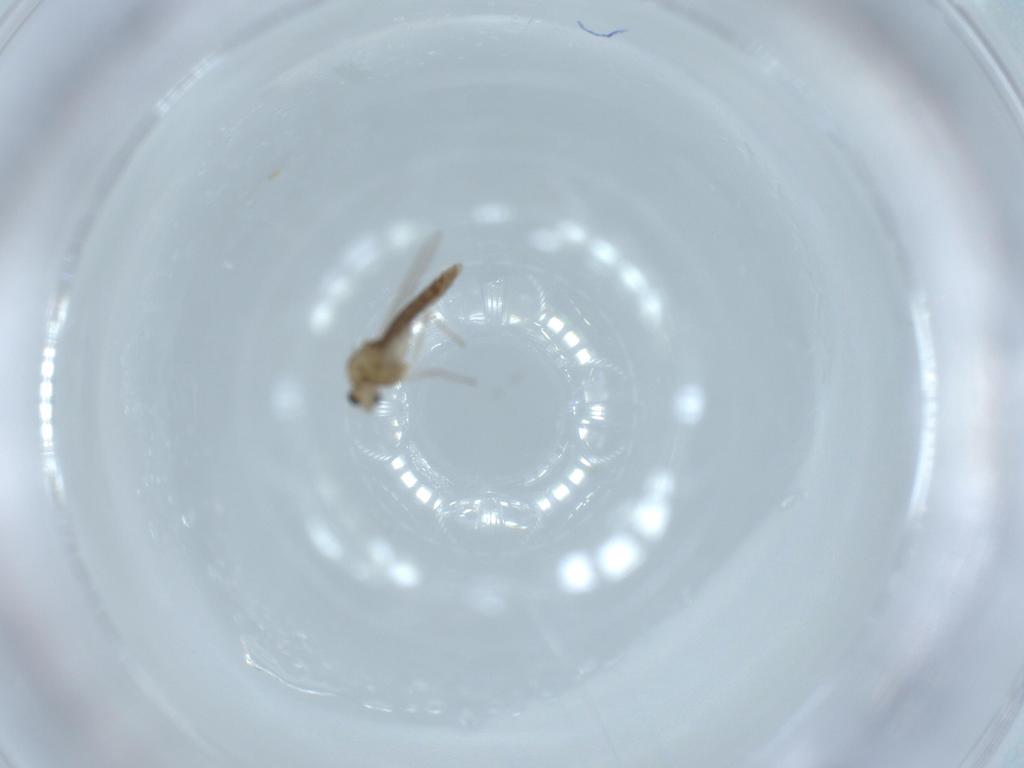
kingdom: Animalia
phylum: Arthropoda
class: Insecta
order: Diptera
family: Chironomidae
